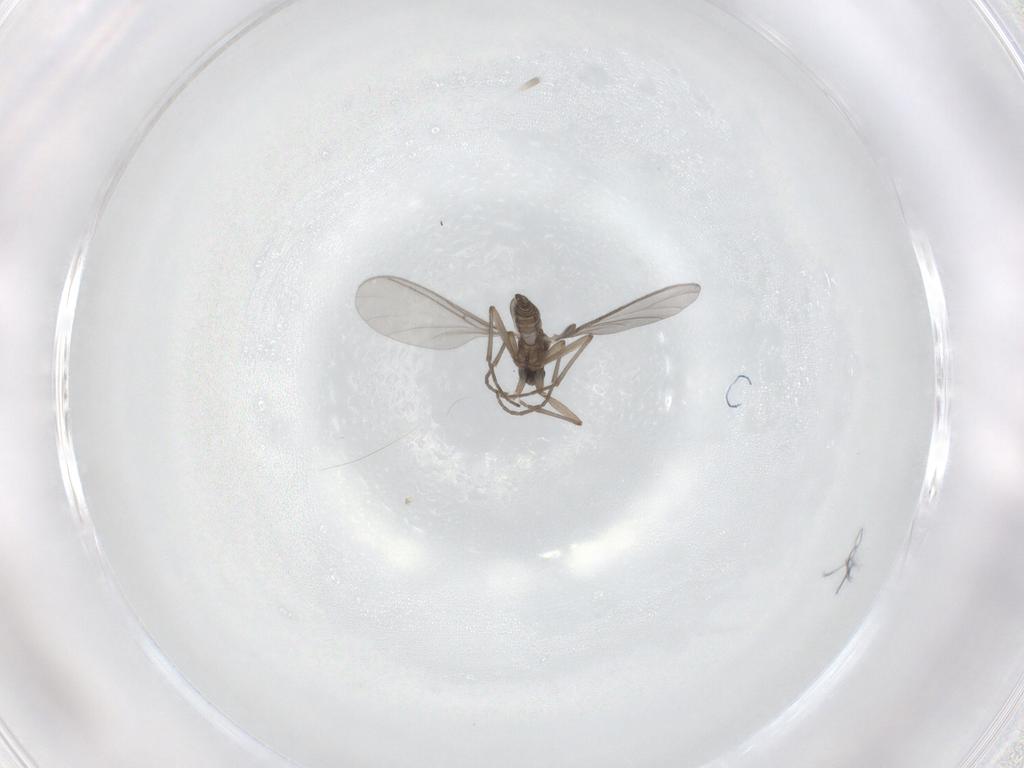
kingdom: Animalia
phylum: Arthropoda
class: Insecta
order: Diptera
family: Sciaridae
